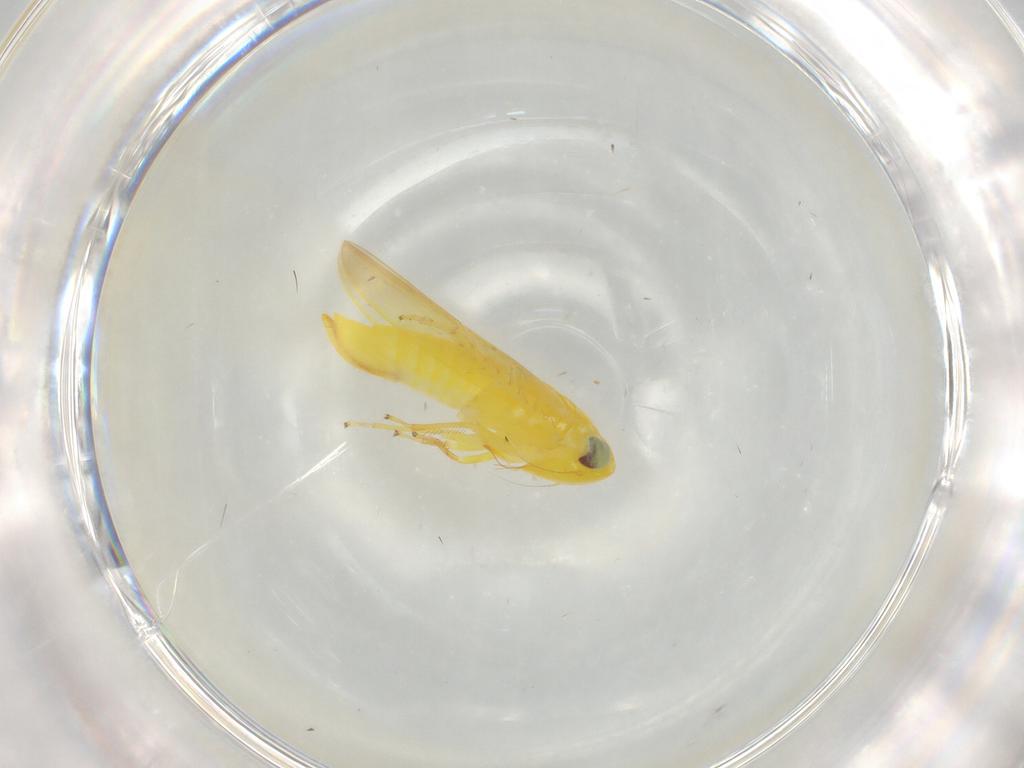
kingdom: Animalia
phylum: Arthropoda
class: Insecta
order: Hemiptera
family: Cicadellidae
